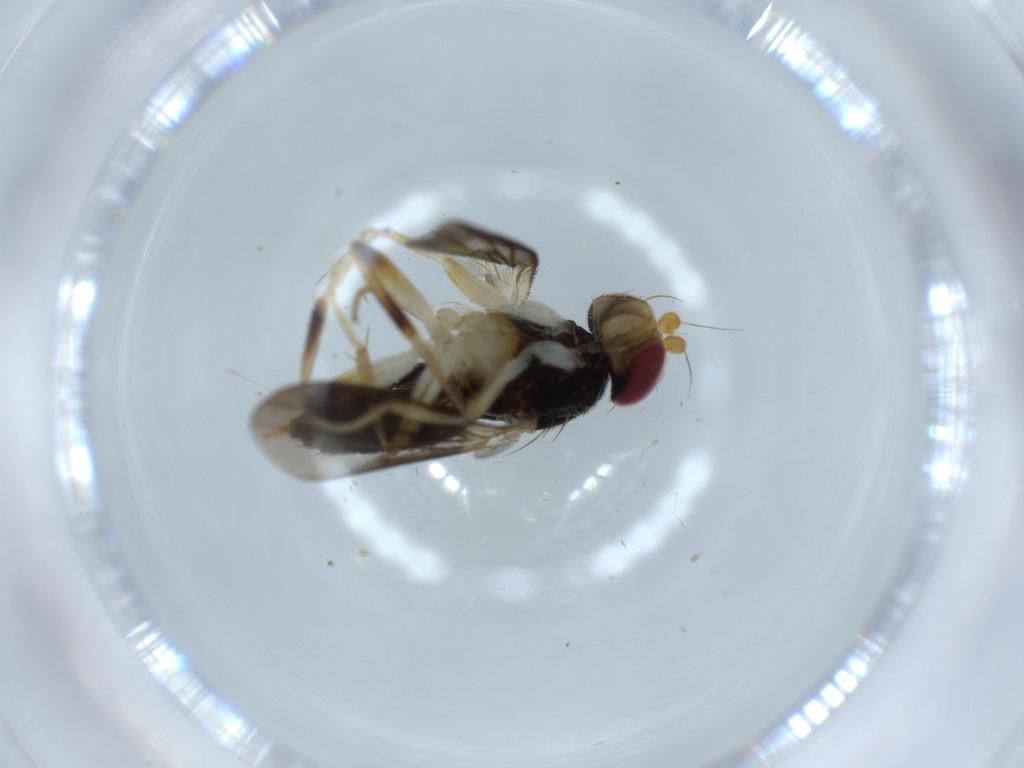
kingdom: Animalia
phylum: Arthropoda
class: Insecta
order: Diptera
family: Clusiidae
